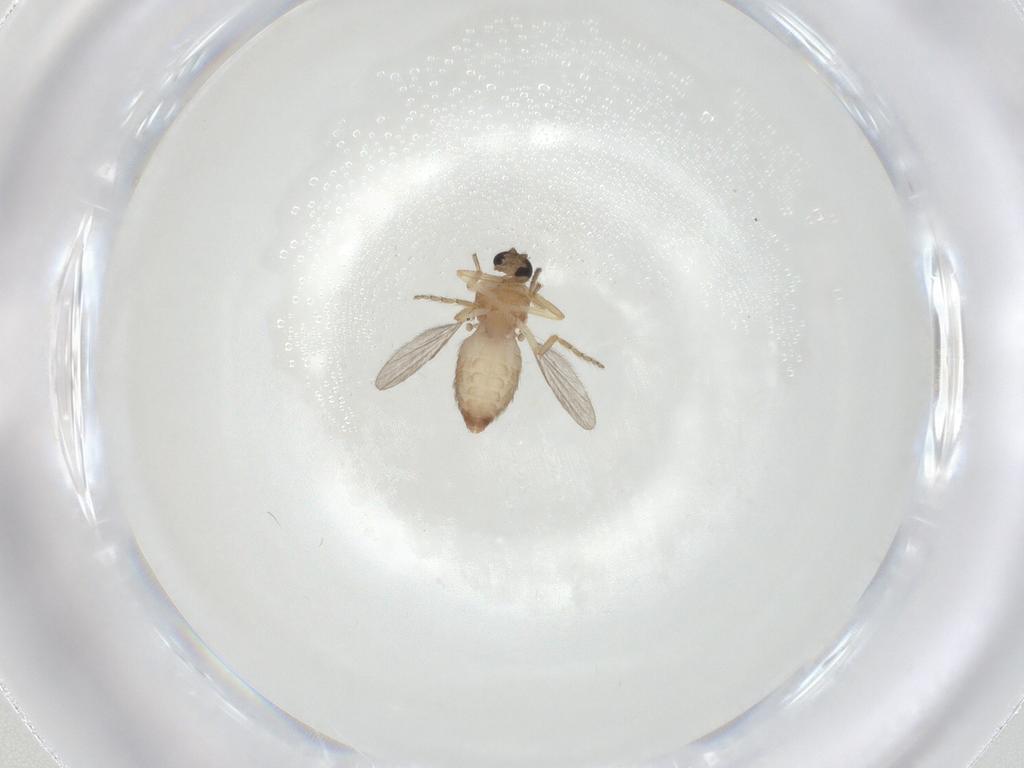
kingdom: Animalia
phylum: Arthropoda
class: Insecta
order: Diptera
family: Ceratopogonidae
